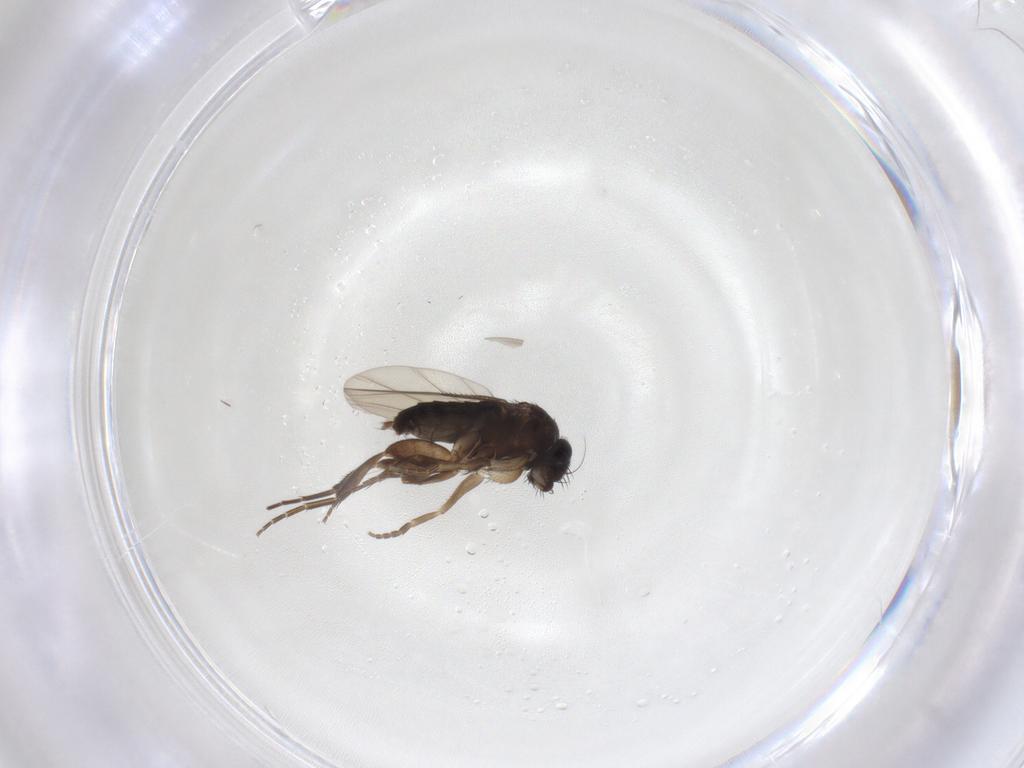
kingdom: Animalia
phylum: Arthropoda
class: Insecta
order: Diptera
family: Phoridae
